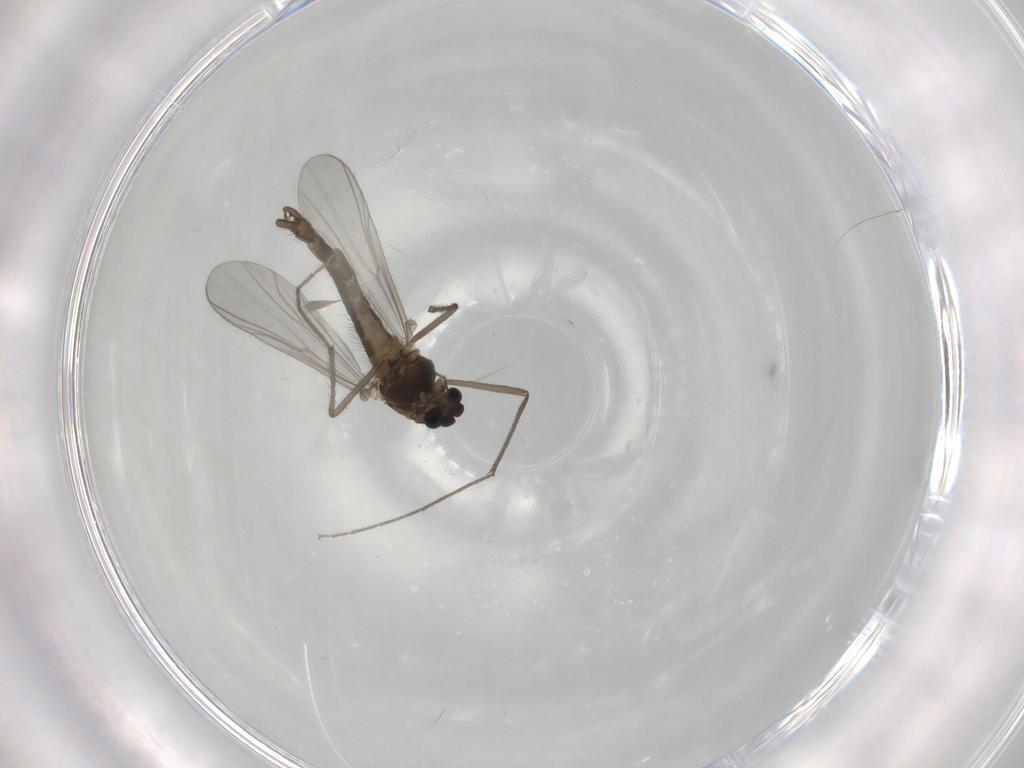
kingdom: Animalia
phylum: Arthropoda
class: Insecta
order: Diptera
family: Chironomidae
